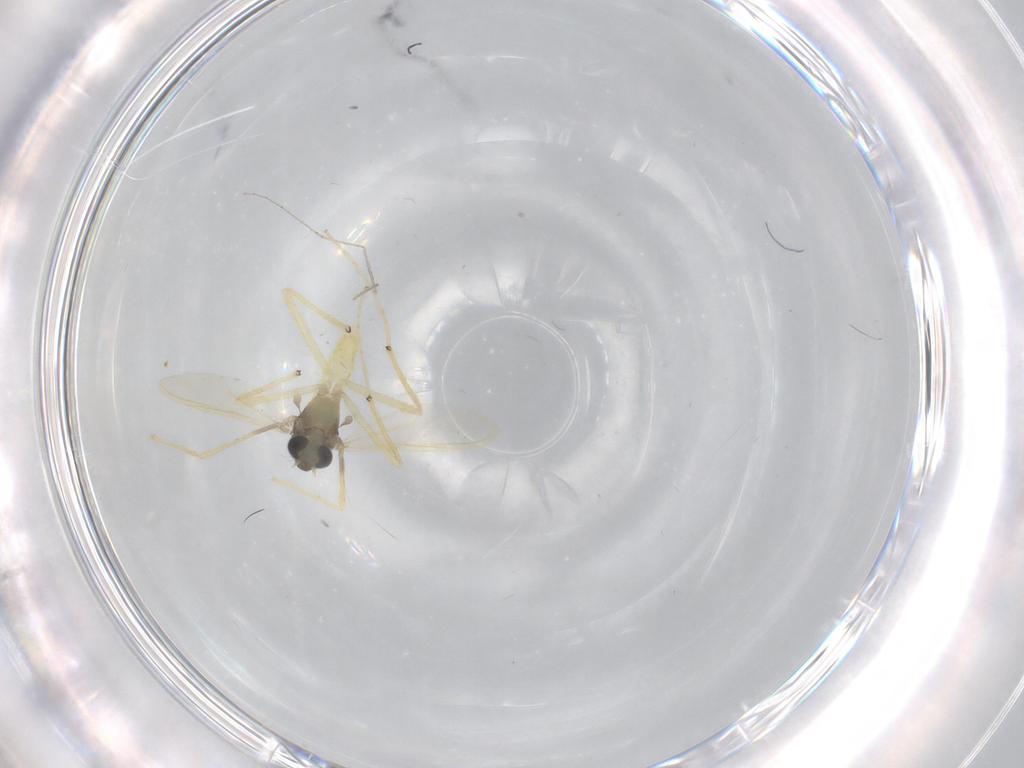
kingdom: Animalia
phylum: Arthropoda
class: Insecta
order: Diptera
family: Chironomidae
